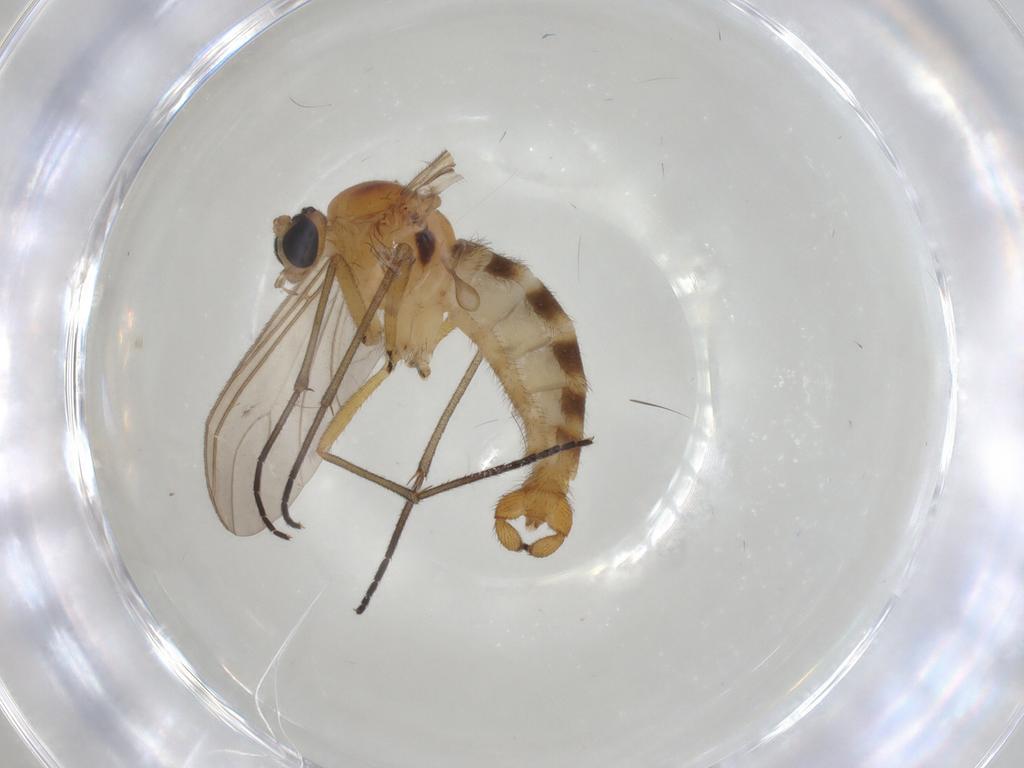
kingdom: Animalia
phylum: Arthropoda
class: Insecta
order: Diptera
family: Sciaridae
